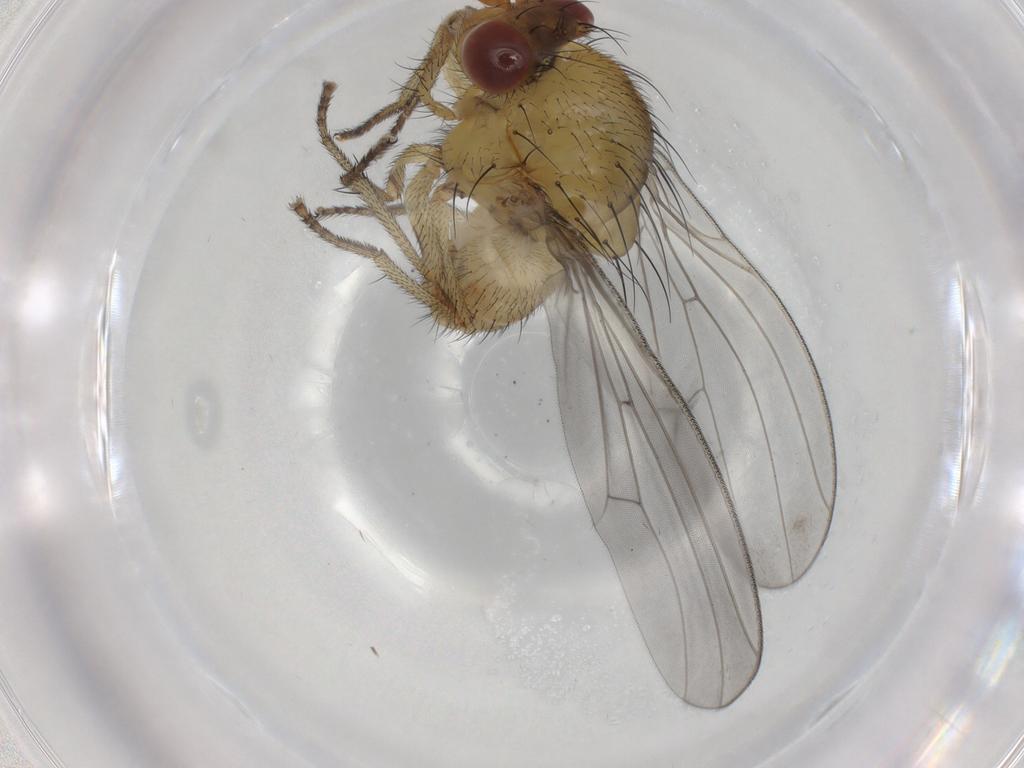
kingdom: Animalia
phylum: Arthropoda
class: Insecta
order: Diptera
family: Lauxaniidae
